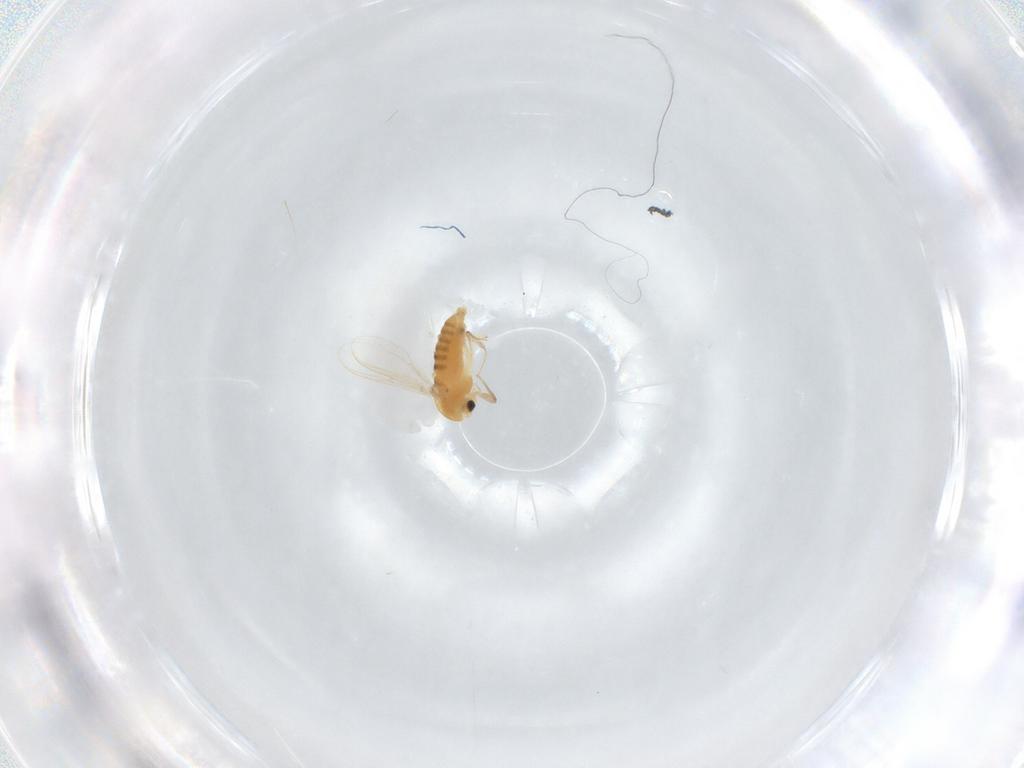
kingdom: Animalia
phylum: Arthropoda
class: Insecta
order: Diptera
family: Chironomidae
